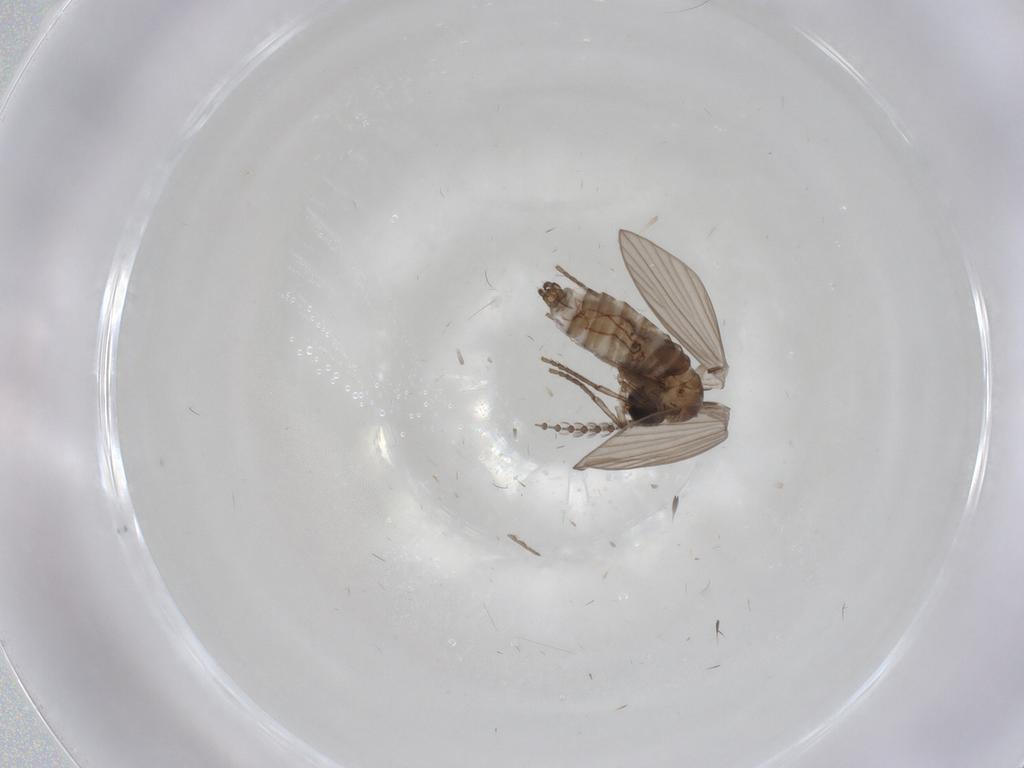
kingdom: Animalia
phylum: Arthropoda
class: Insecta
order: Diptera
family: Psychodidae
